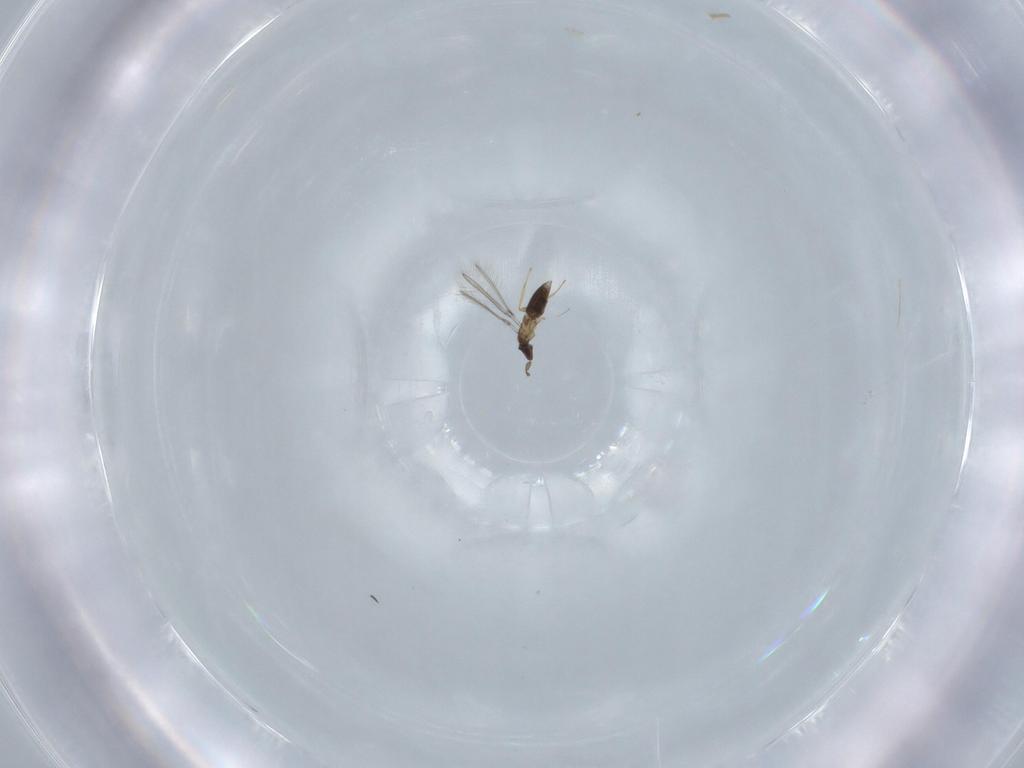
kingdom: Animalia
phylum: Arthropoda
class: Insecta
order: Hymenoptera
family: Mymaridae
